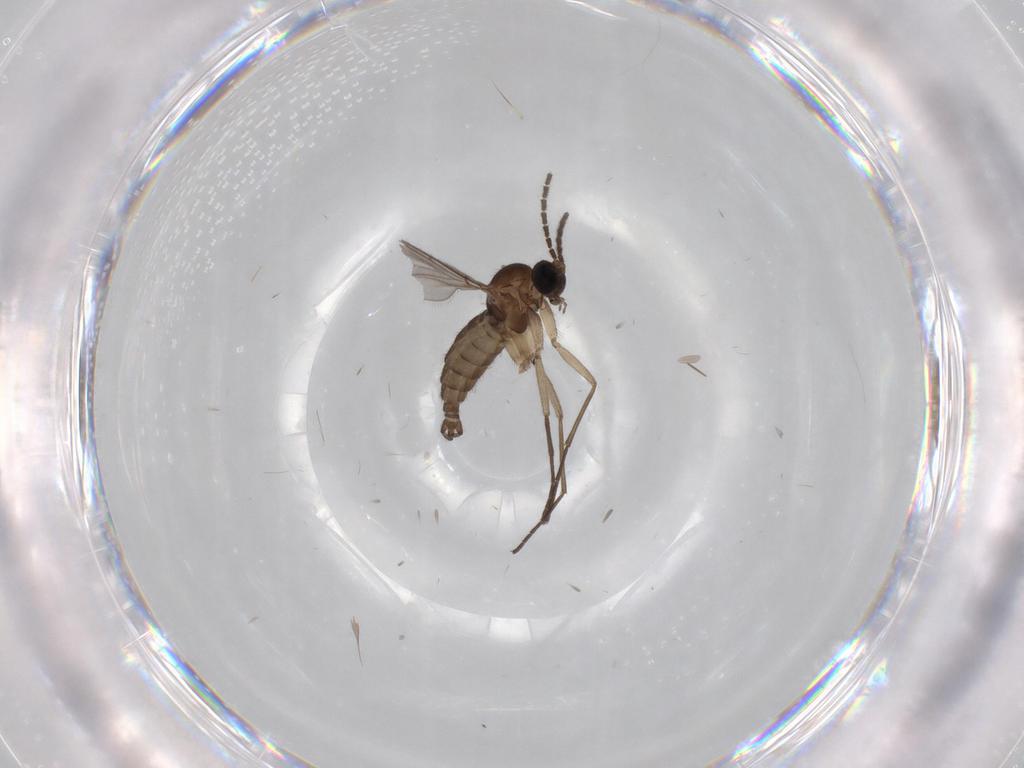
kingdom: Animalia
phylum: Arthropoda
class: Insecta
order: Diptera
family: Sciaridae
